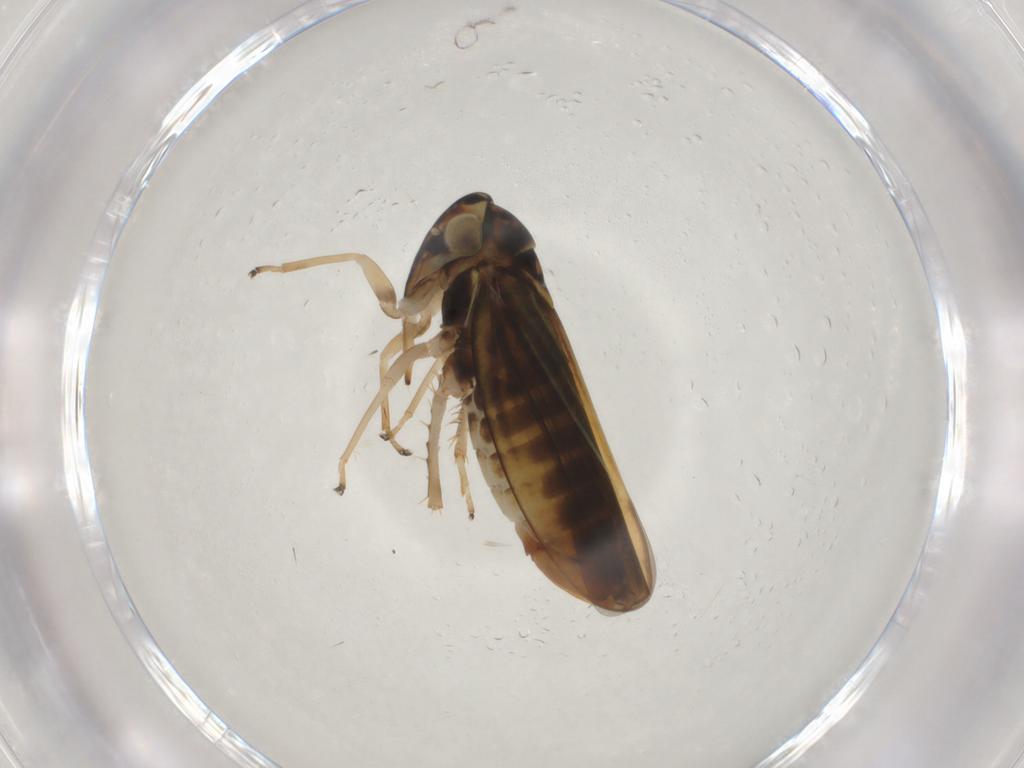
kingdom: Animalia
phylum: Arthropoda
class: Insecta
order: Hemiptera
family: Cicadellidae
